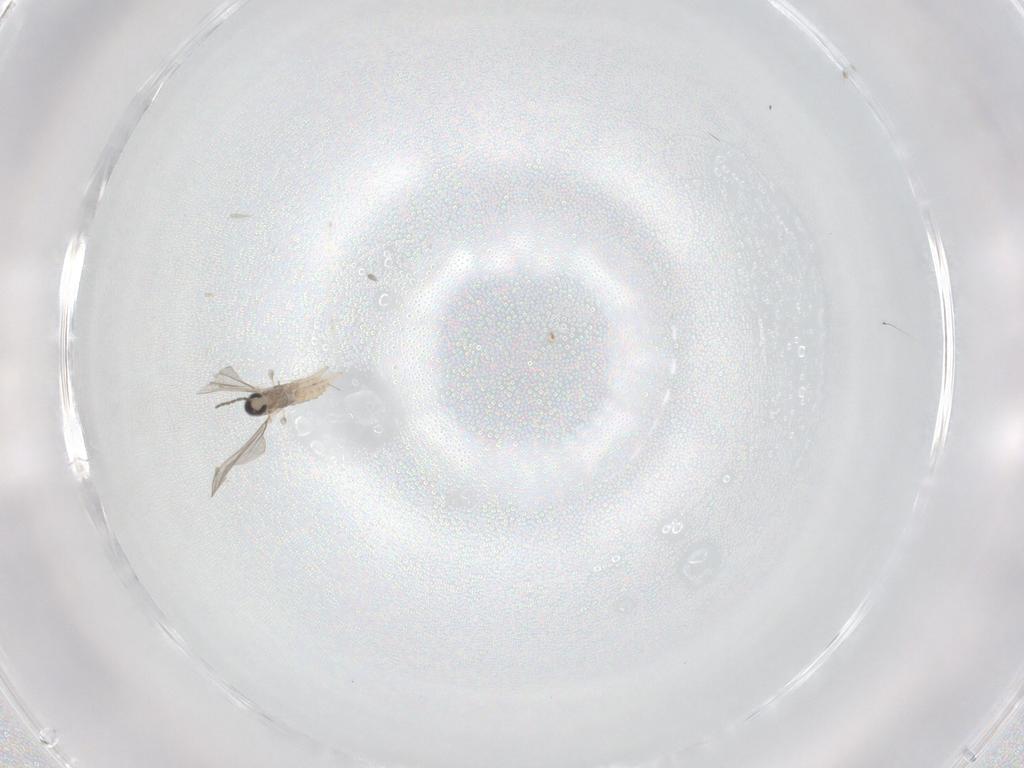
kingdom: Animalia
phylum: Arthropoda
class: Insecta
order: Diptera
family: Cecidomyiidae
